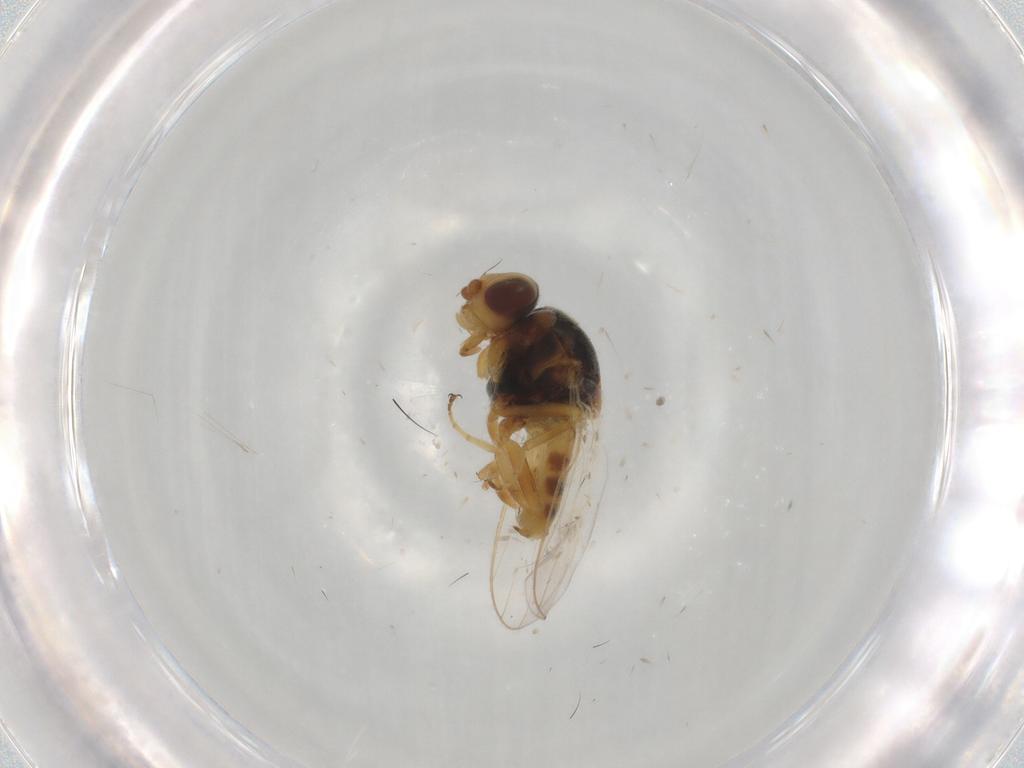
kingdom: Animalia
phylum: Arthropoda
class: Insecta
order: Diptera
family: Chloropidae
